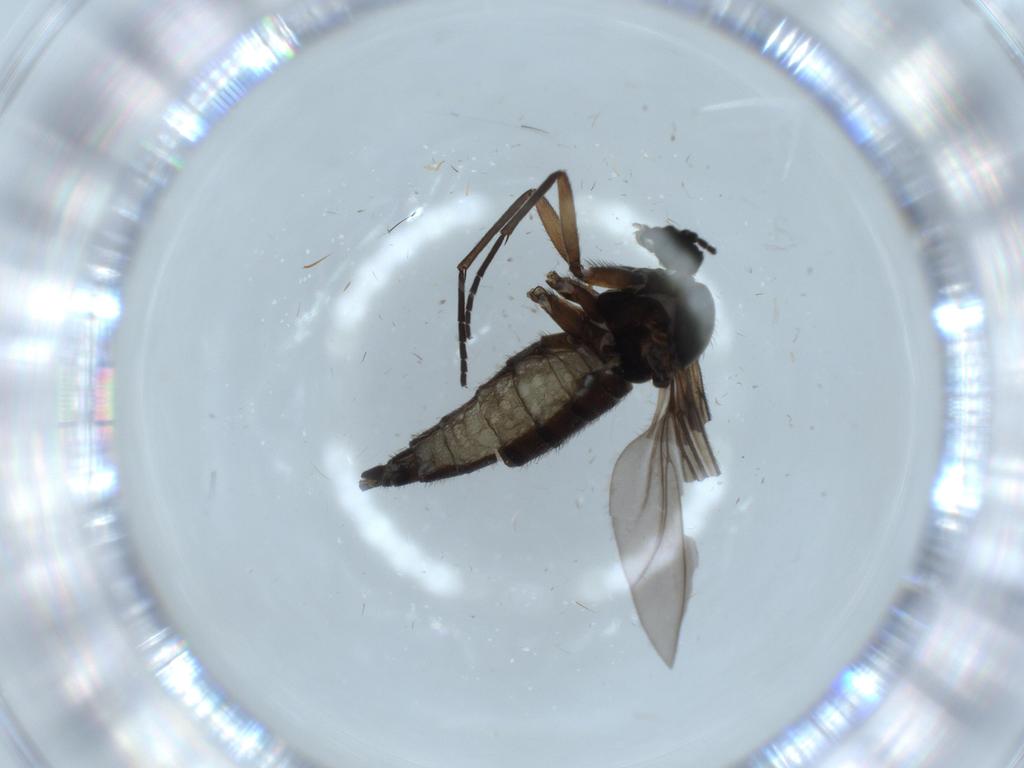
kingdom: Animalia
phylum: Arthropoda
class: Insecta
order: Diptera
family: Sciaridae
